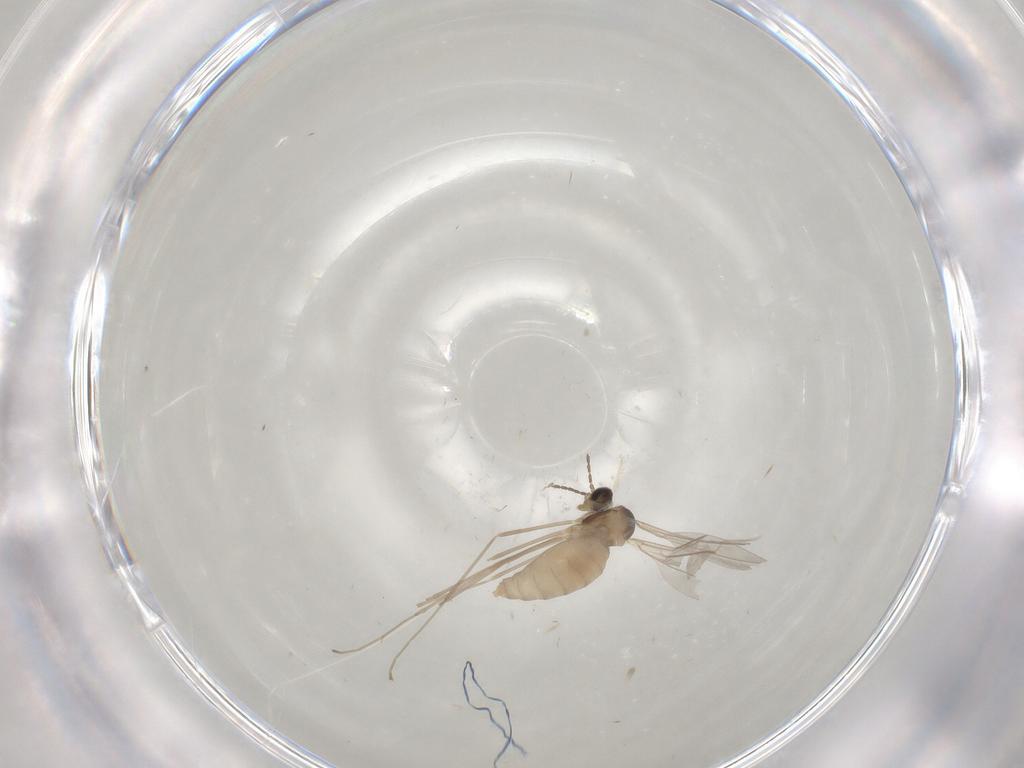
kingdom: Animalia
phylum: Arthropoda
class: Insecta
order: Diptera
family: Cecidomyiidae
